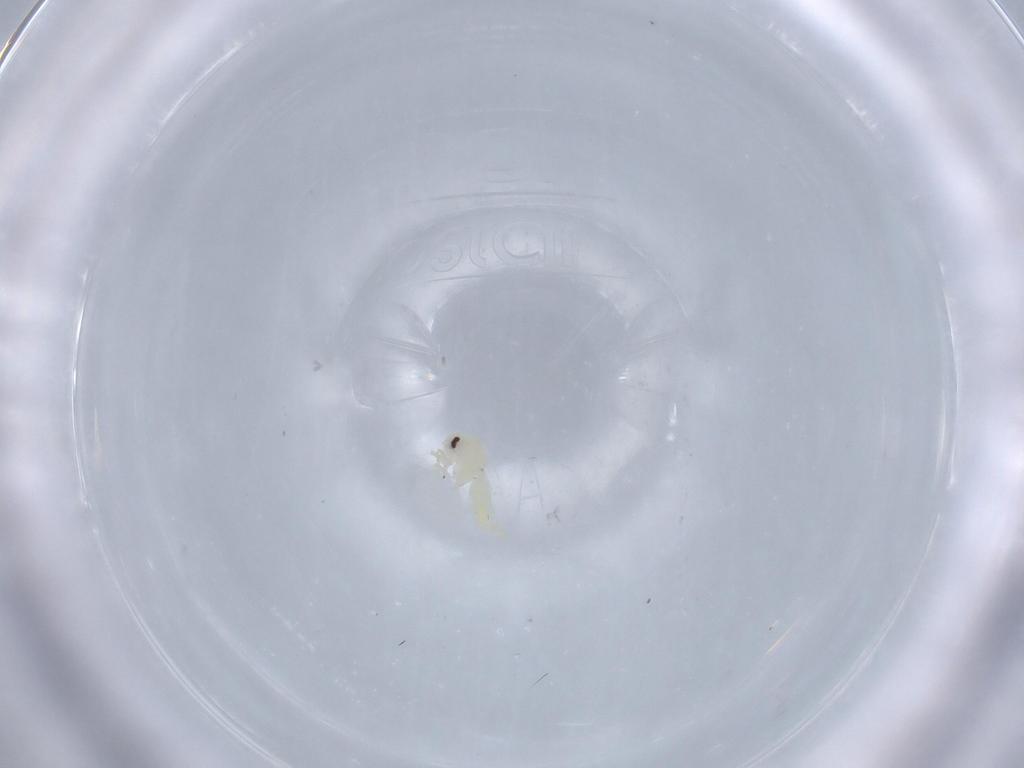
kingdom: Animalia
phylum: Arthropoda
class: Insecta
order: Hemiptera
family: Aleyrodidae
